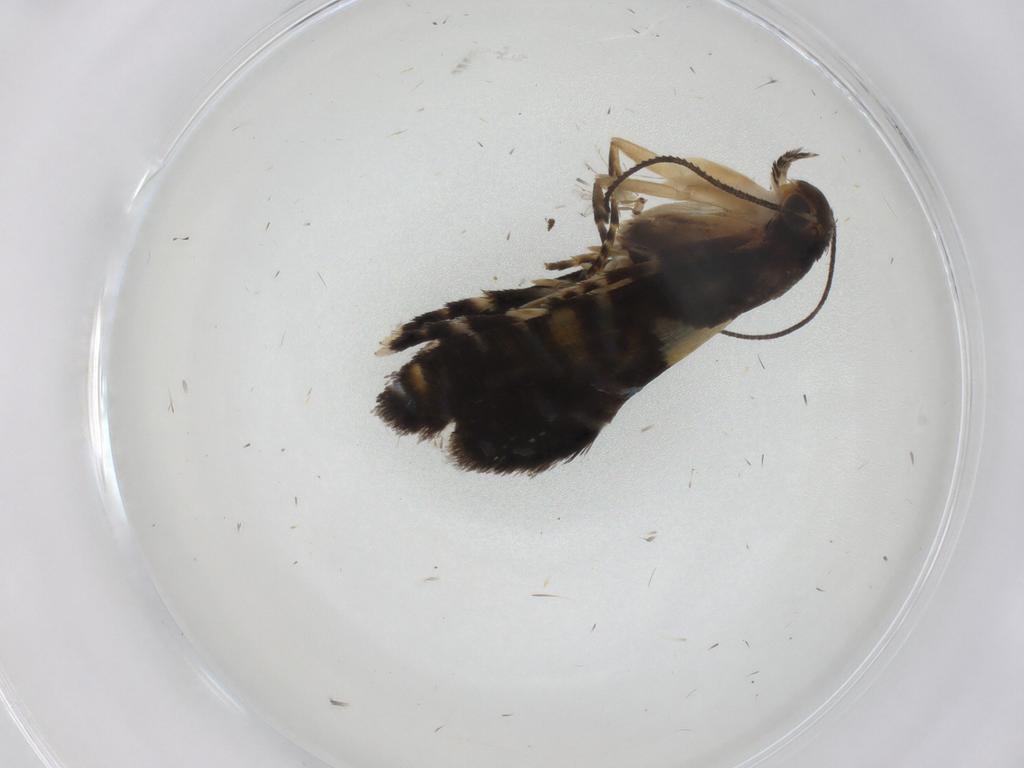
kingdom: Animalia
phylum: Arthropoda
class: Insecta
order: Lepidoptera
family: Glyphipterigidae
